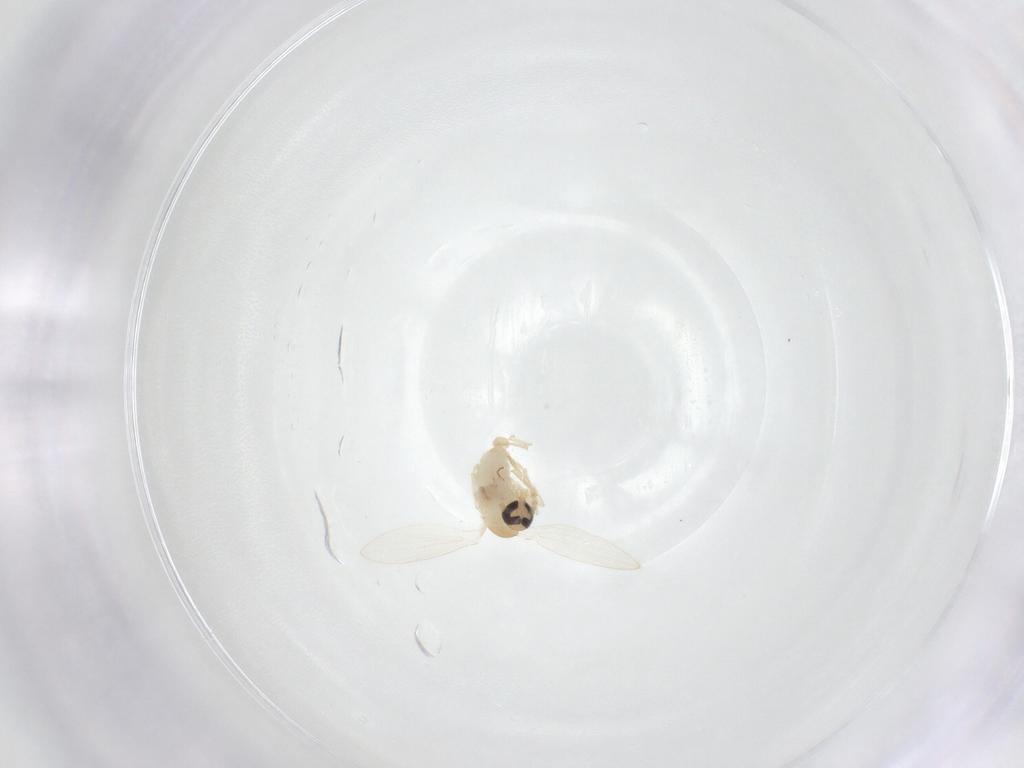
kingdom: Animalia
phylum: Arthropoda
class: Insecta
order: Diptera
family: Psychodidae
